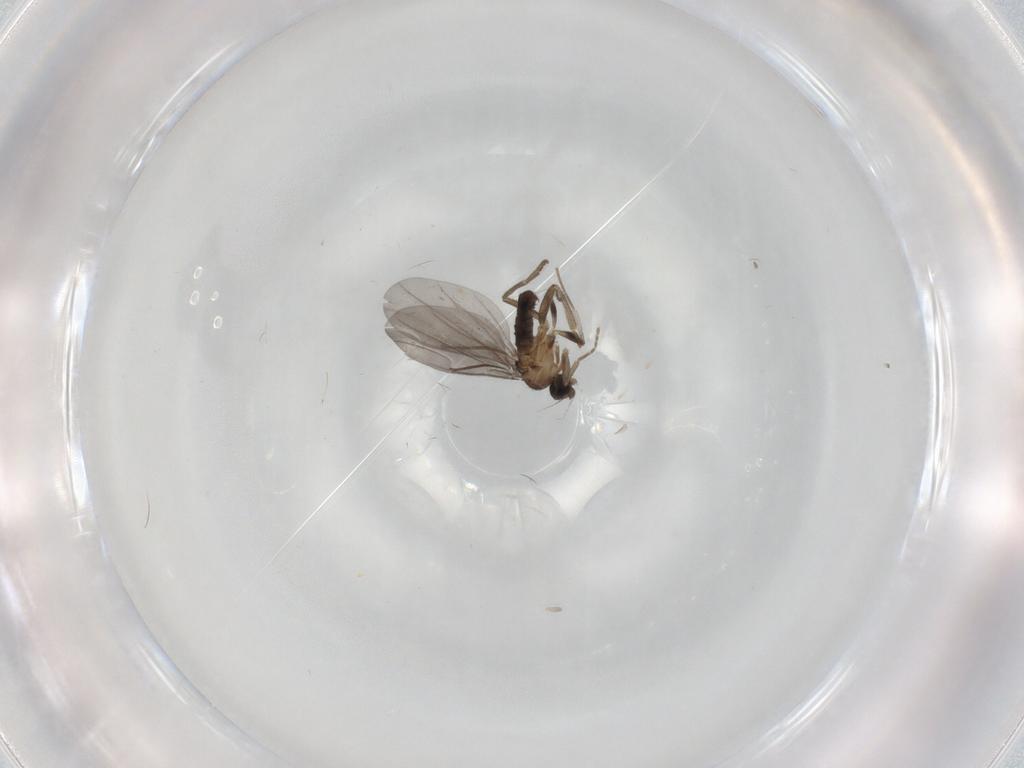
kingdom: Animalia
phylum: Arthropoda
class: Insecta
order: Diptera
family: Phoridae
